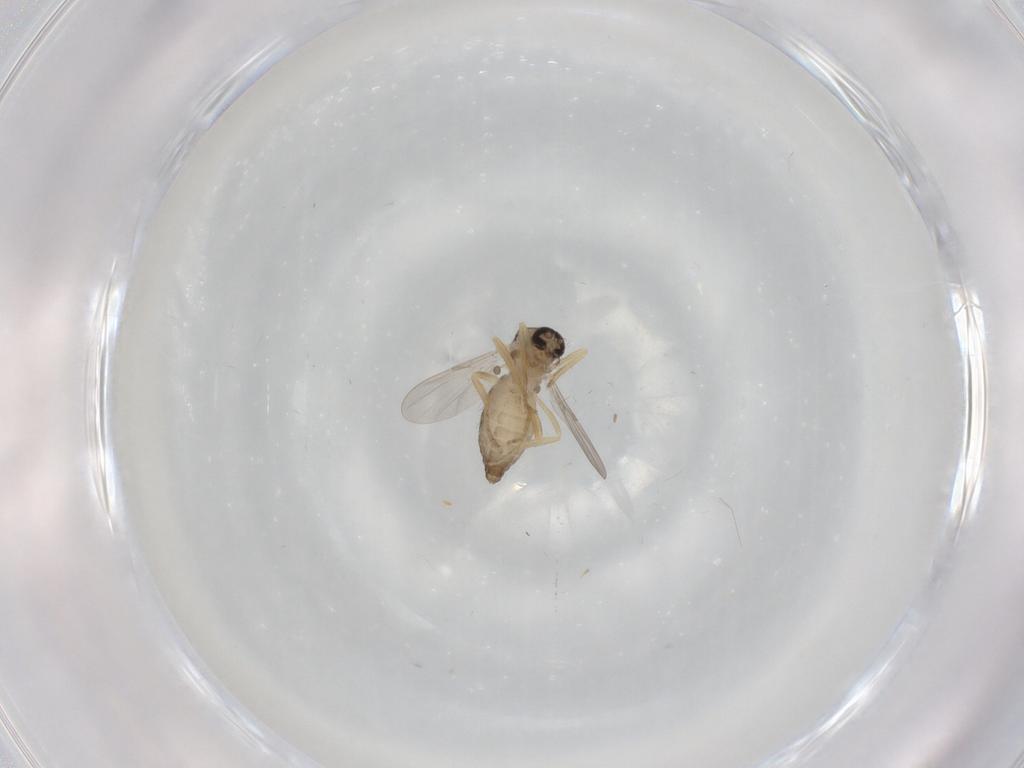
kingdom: Animalia
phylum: Arthropoda
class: Insecta
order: Diptera
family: Ceratopogonidae
